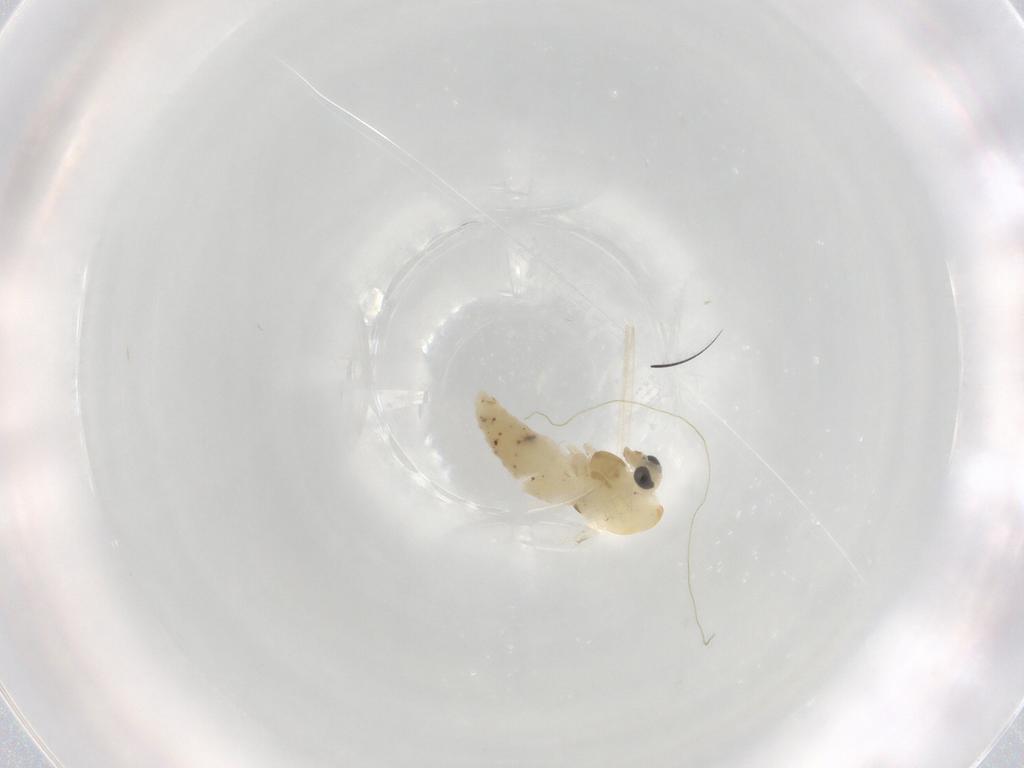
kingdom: Animalia
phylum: Arthropoda
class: Insecta
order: Diptera
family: Chironomidae
